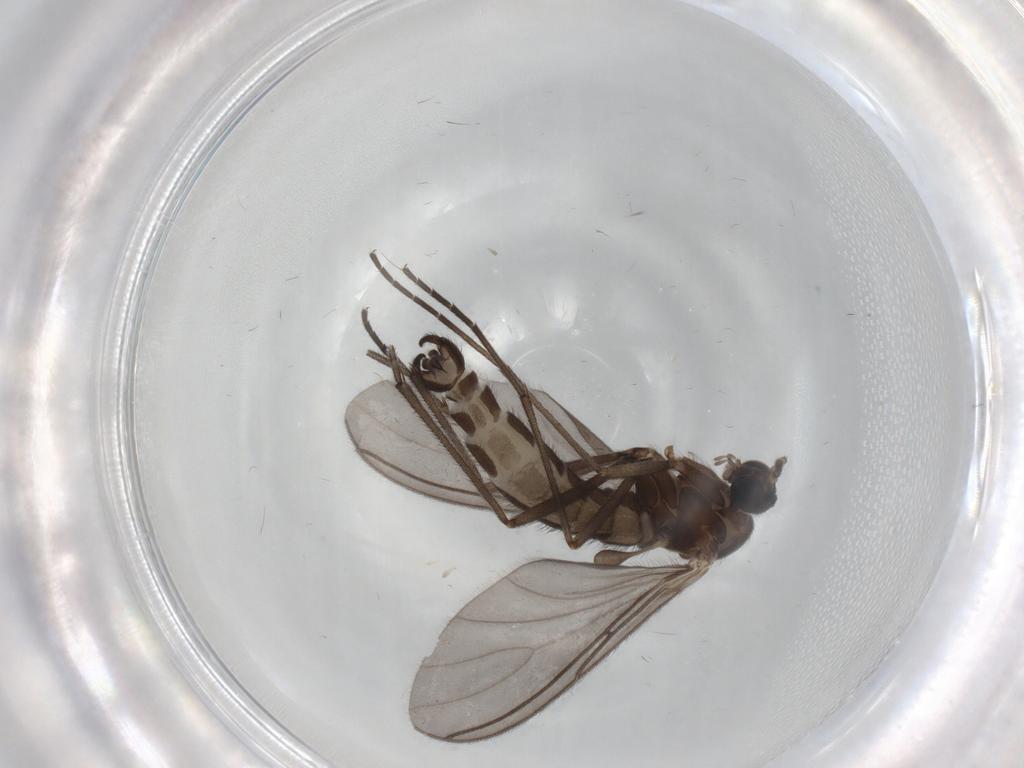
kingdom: Animalia
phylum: Arthropoda
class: Insecta
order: Diptera
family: Sciaridae
